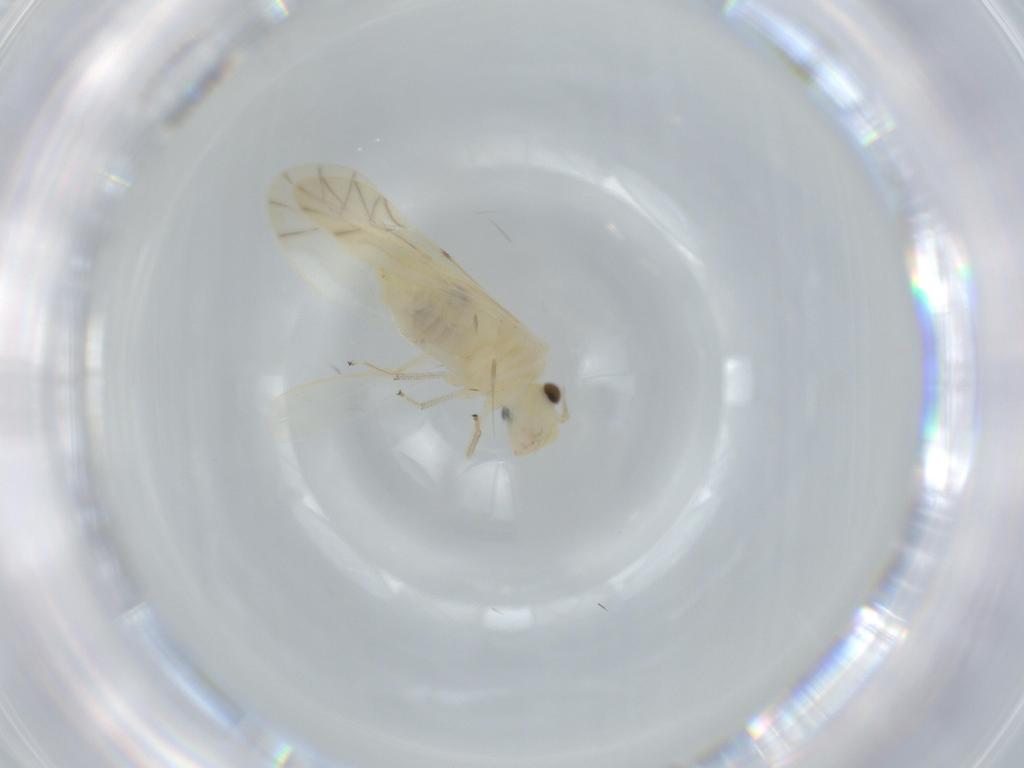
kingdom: Animalia
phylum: Arthropoda
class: Insecta
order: Psocodea
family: Caeciliusidae
